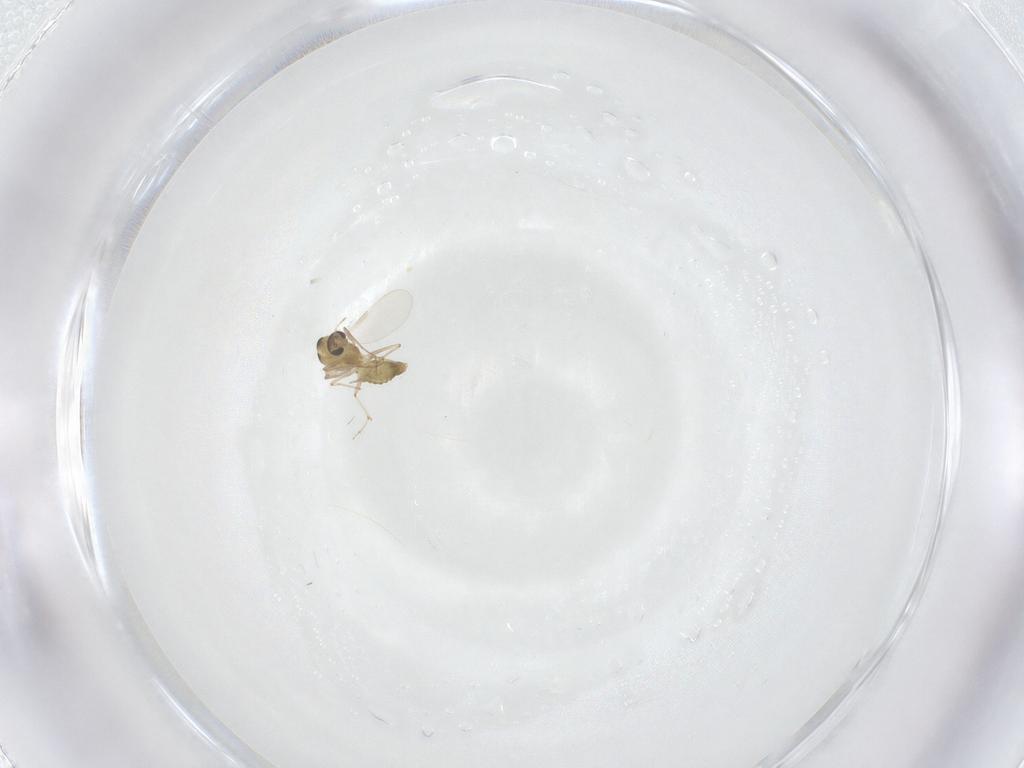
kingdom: Animalia
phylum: Arthropoda
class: Insecta
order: Diptera
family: Chironomidae
